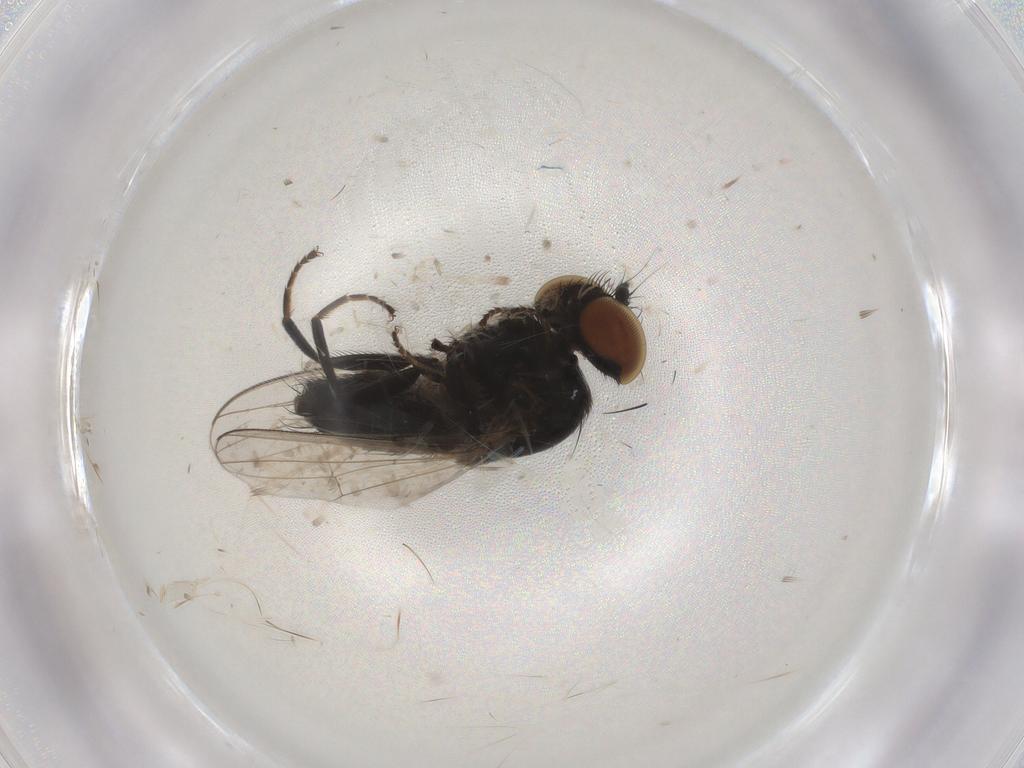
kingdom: Animalia
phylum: Arthropoda
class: Insecta
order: Diptera
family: Milichiidae
